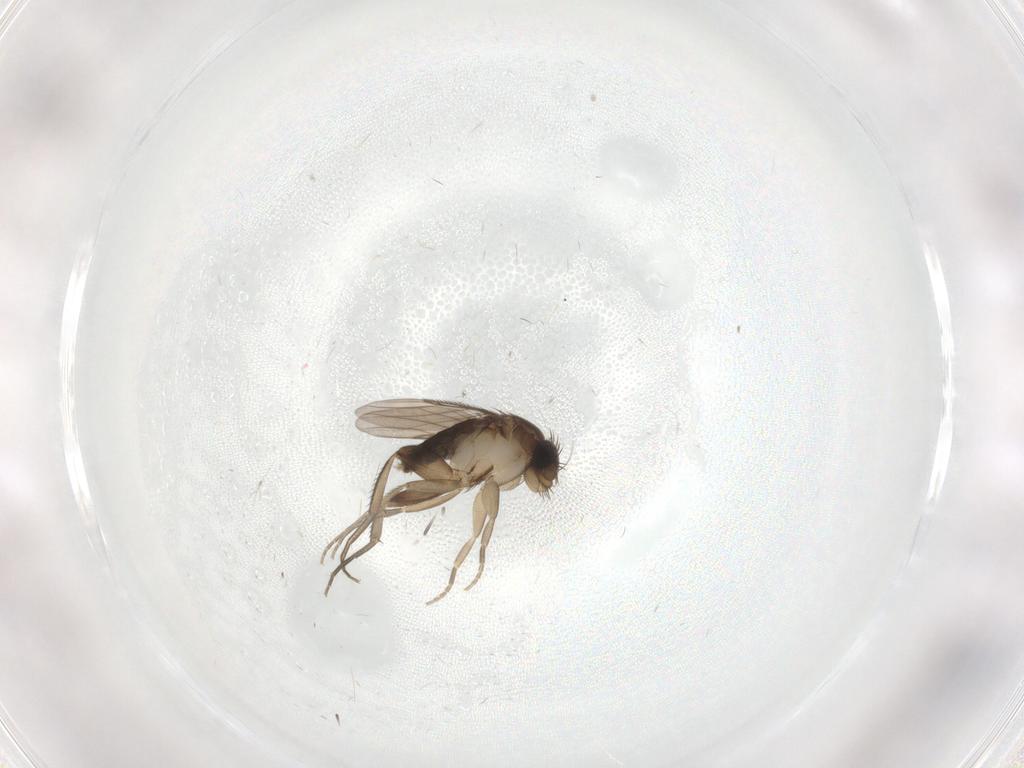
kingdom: Animalia
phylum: Arthropoda
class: Insecta
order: Diptera
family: Phoridae
